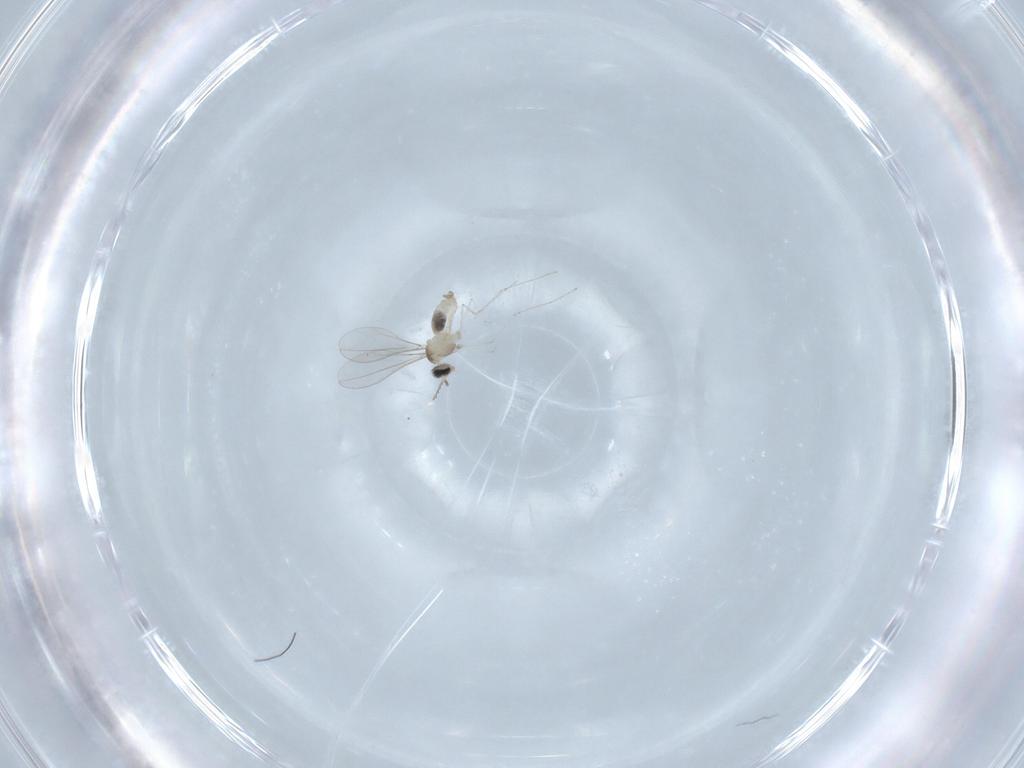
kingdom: Animalia
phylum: Arthropoda
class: Insecta
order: Diptera
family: Cecidomyiidae
